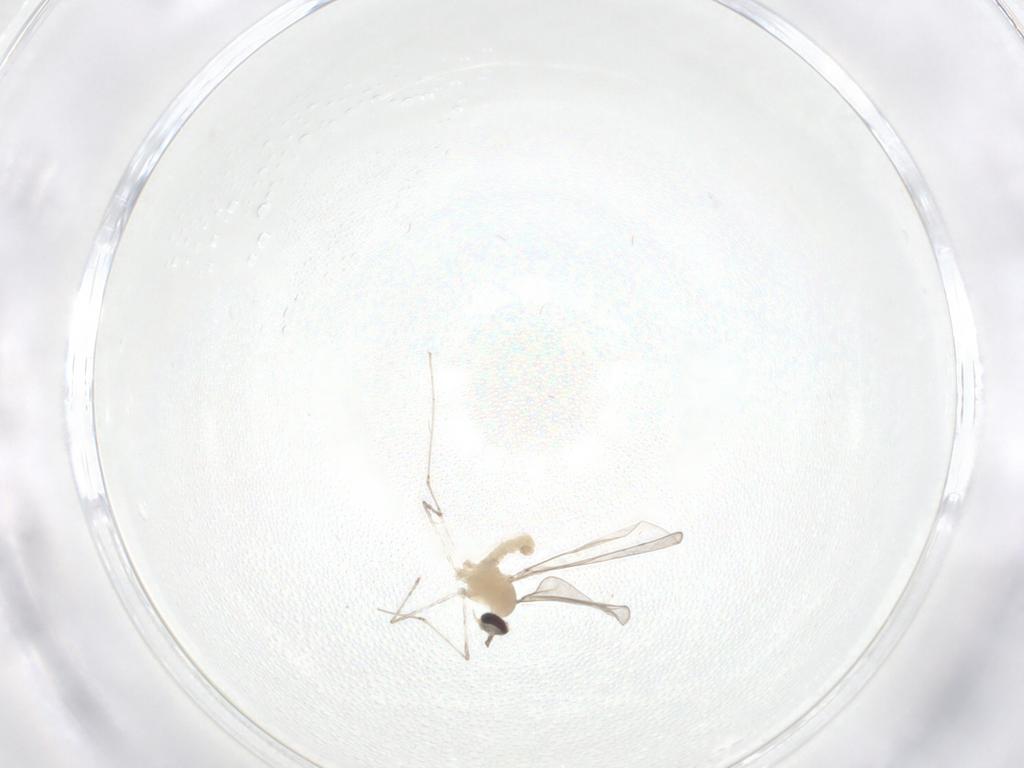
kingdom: Animalia
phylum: Arthropoda
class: Insecta
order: Diptera
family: Cecidomyiidae
